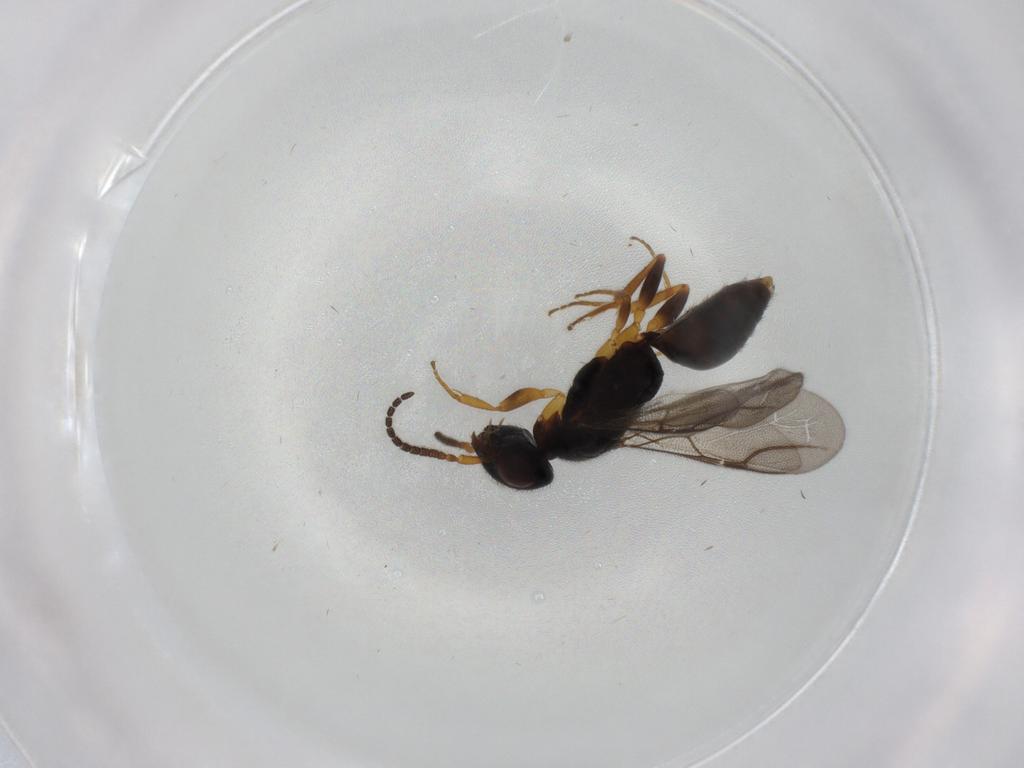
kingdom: Animalia
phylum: Arthropoda
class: Insecta
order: Hymenoptera
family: Bethylidae
